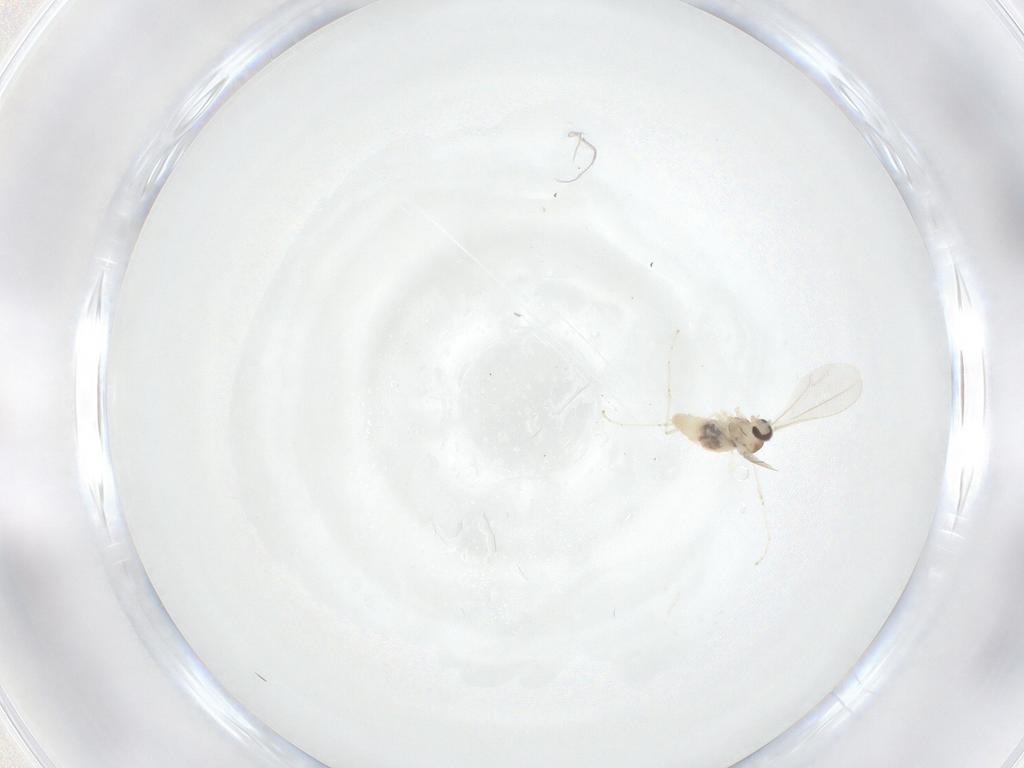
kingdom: Animalia
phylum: Arthropoda
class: Insecta
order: Diptera
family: Cecidomyiidae
